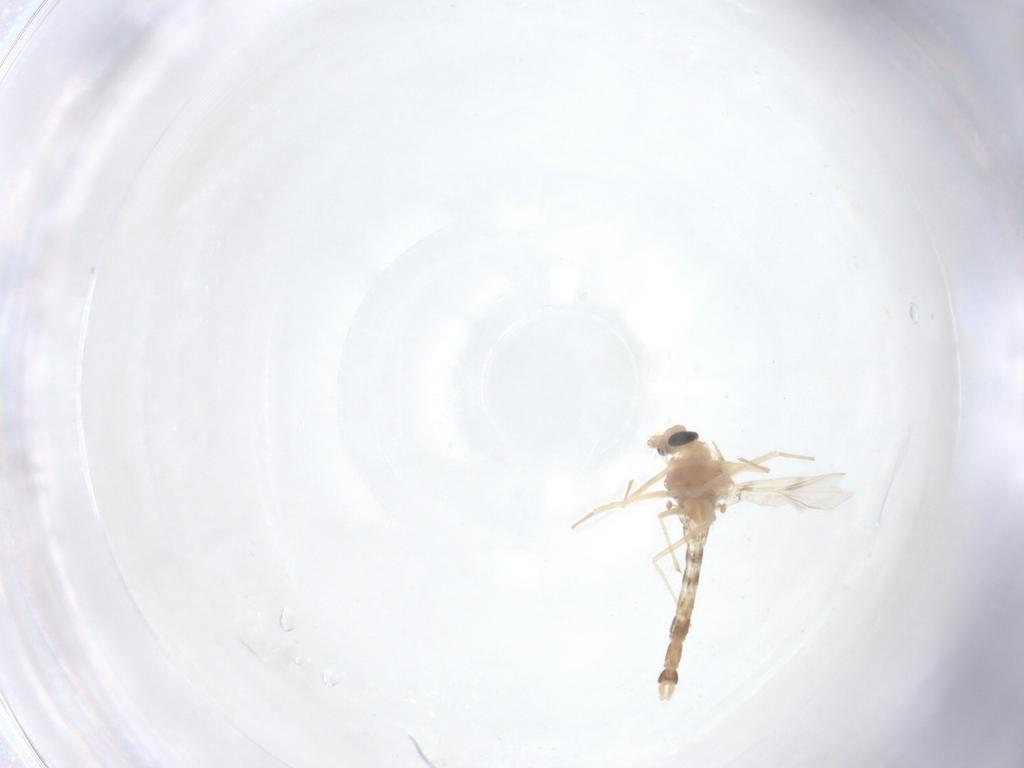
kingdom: Animalia
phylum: Arthropoda
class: Insecta
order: Diptera
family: Chironomidae
